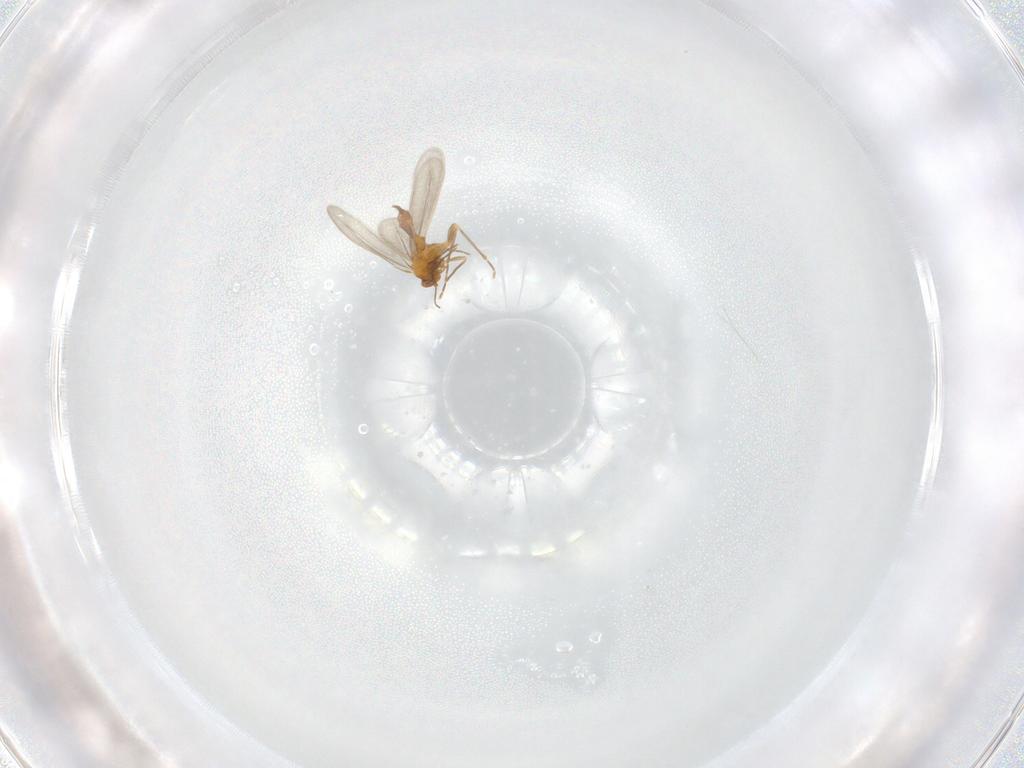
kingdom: Animalia
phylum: Arthropoda
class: Insecta
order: Hemiptera
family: Aleyrodidae
